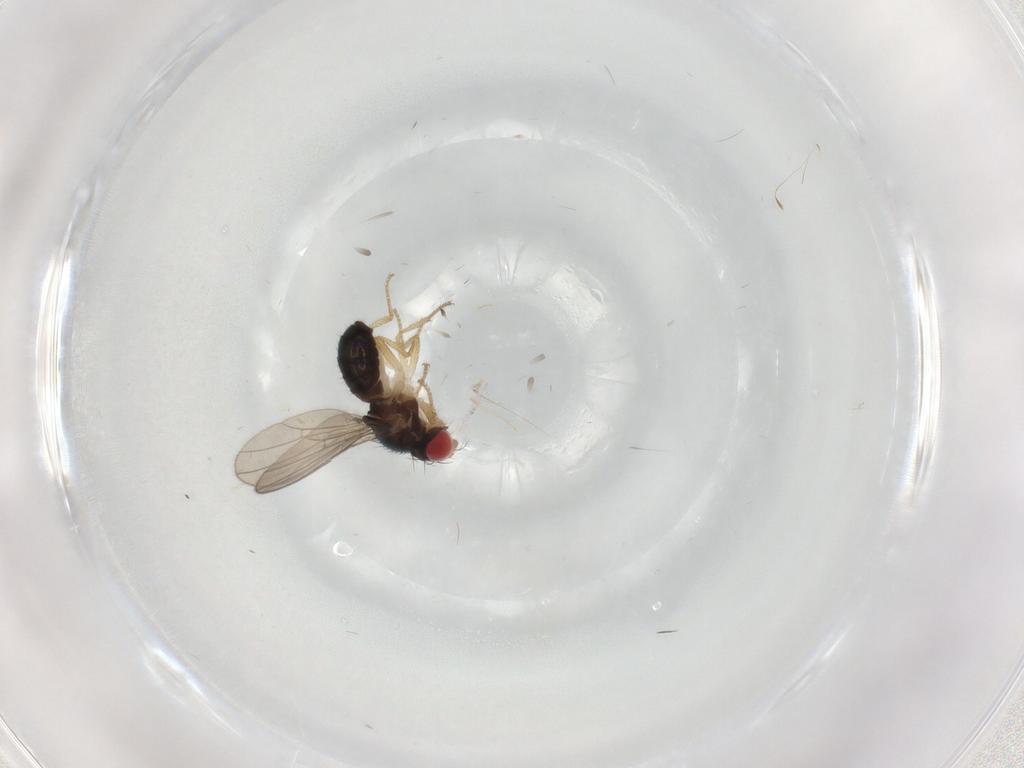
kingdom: Animalia
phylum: Arthropoda
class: Insecta
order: Diptera
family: Drosophilidae
